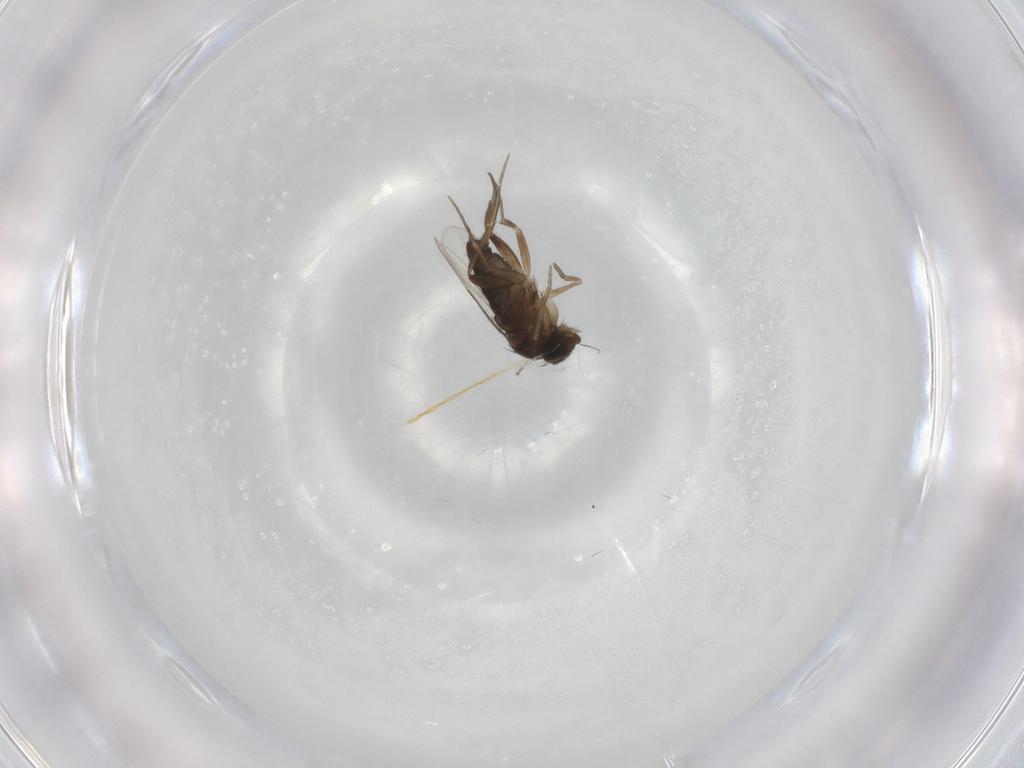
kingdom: Animalia
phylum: Arthropoda
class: Insecta
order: Diptera
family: Phoridae
